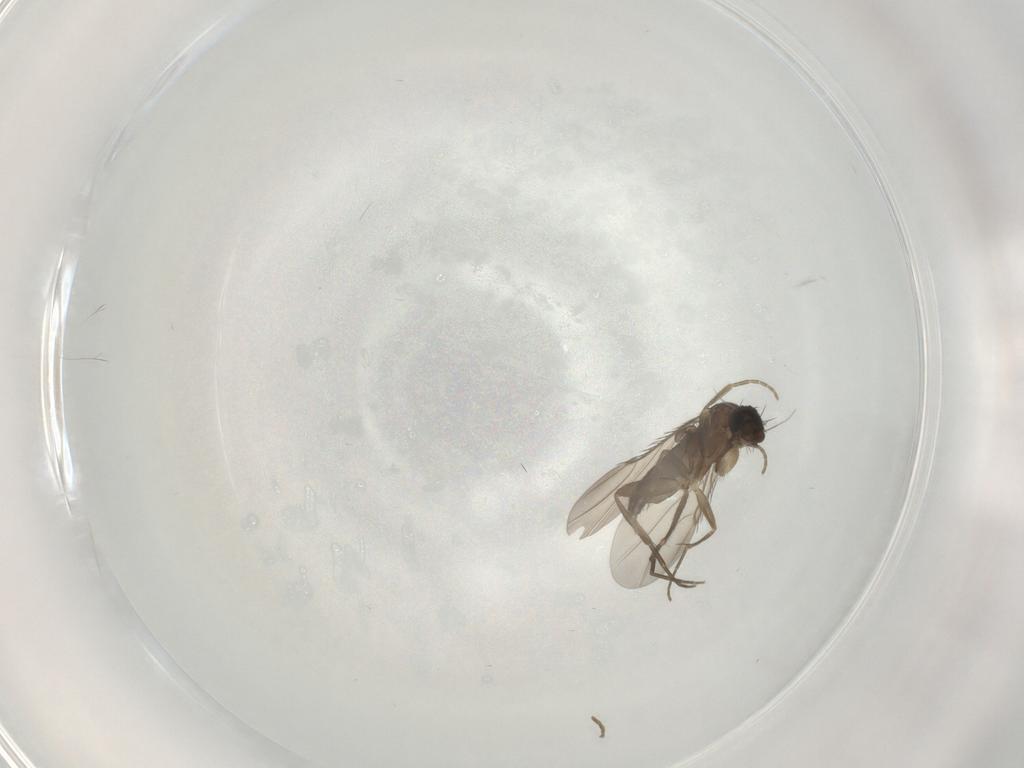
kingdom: Animalia
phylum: Arthropoda
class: Insecta
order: Diptera
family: Phoridae
